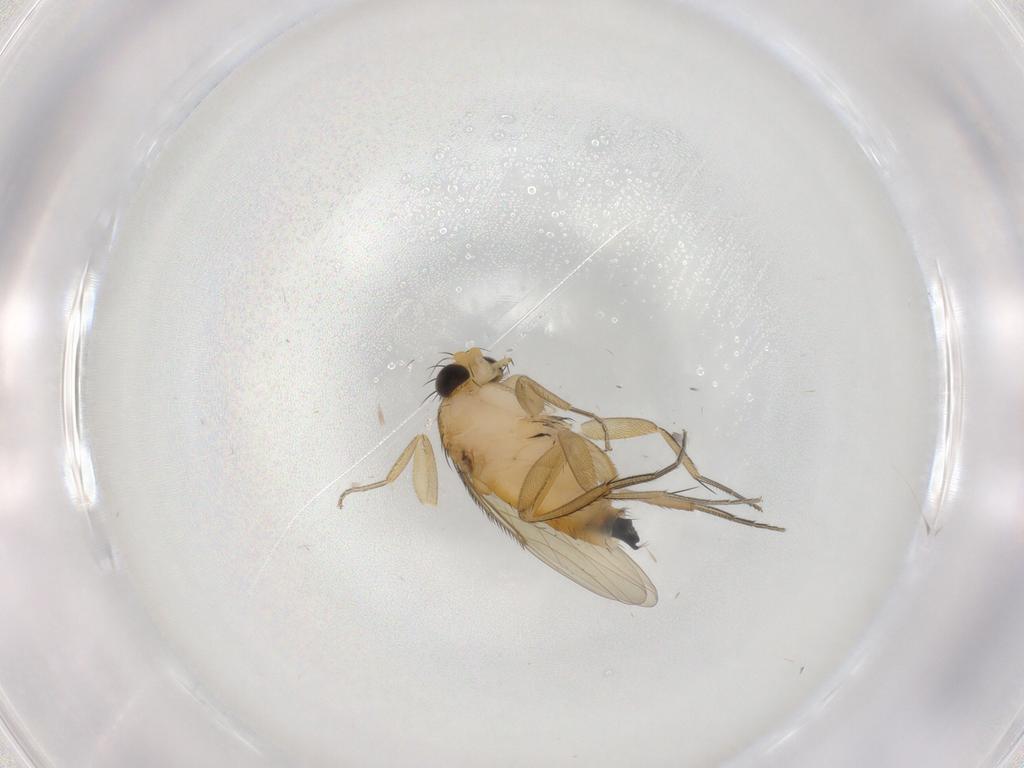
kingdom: Animalia
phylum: Arthropoda
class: Insecta
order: Diptera
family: Phoridae
